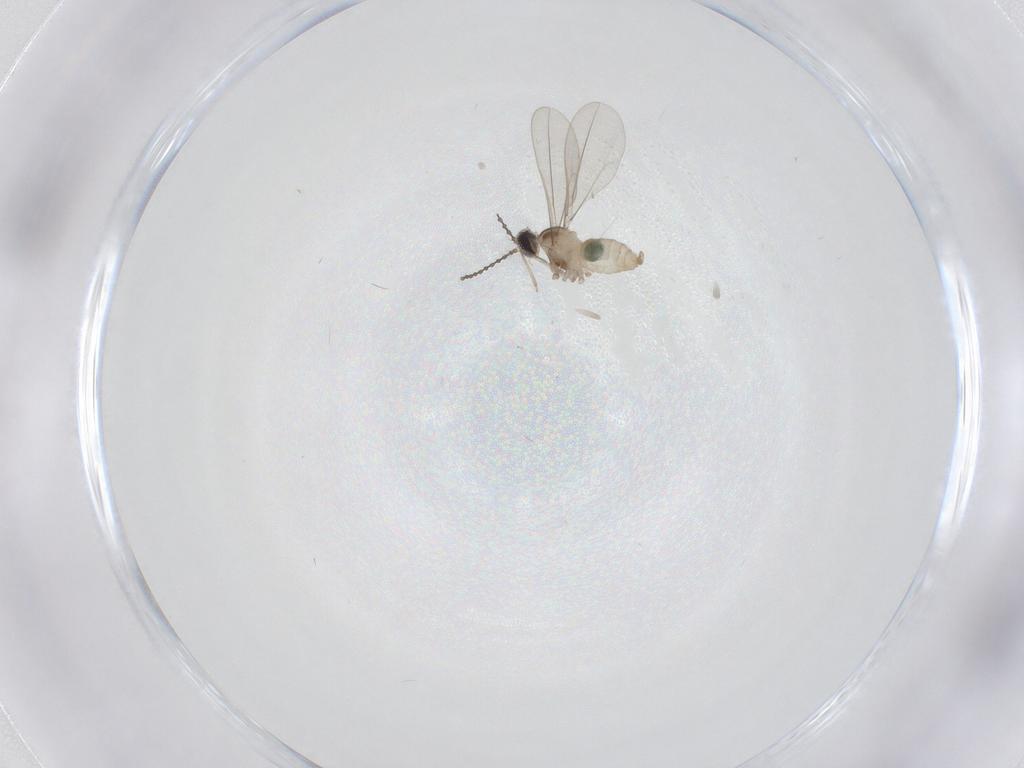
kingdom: Animalia
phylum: Arthropoda
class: Insecta
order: Diptera
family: Cecidomyiidae
